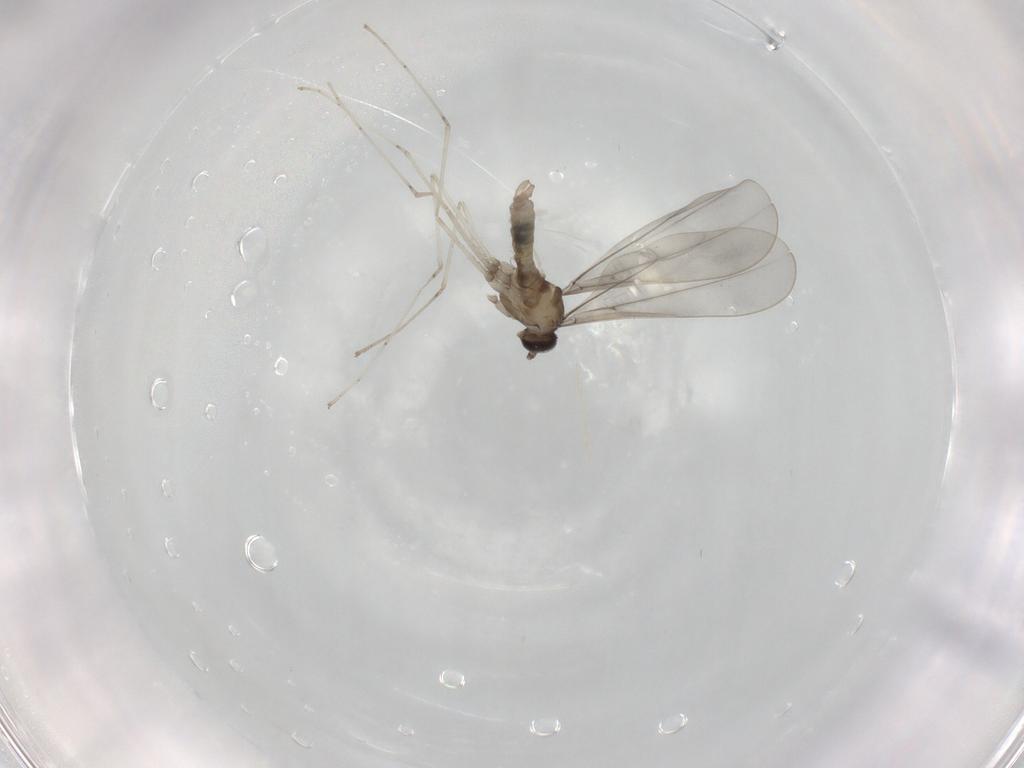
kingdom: Animalia
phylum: Arthropoda
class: Insecta
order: Diptera
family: Cecidomyiidae
